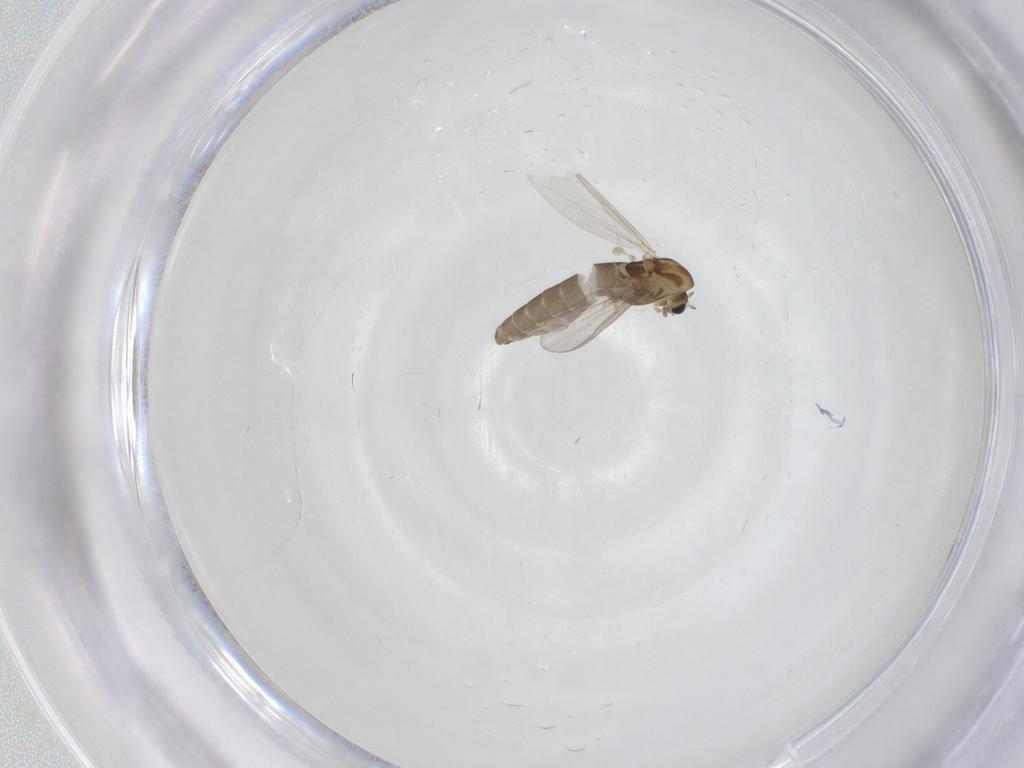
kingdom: Animalia
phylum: Arthropoda
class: Insecta
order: Diptera
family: Chironomidae
